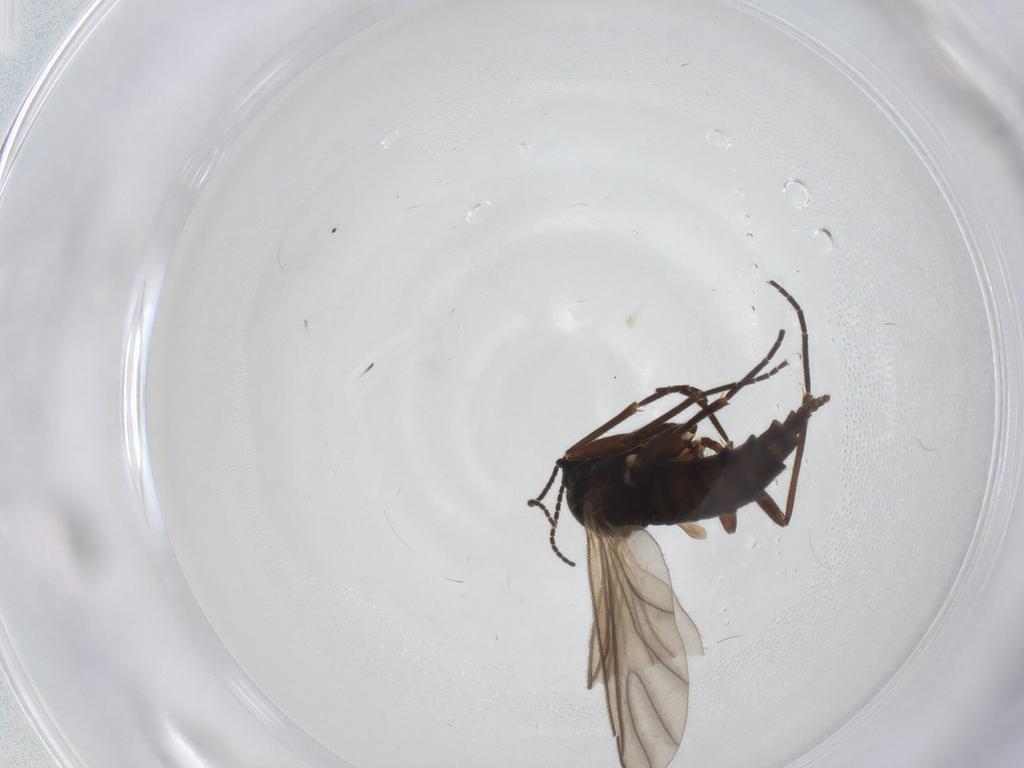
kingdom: Animalia
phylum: Arthropoda
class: Insecta
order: Diptera
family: Sciaridae
